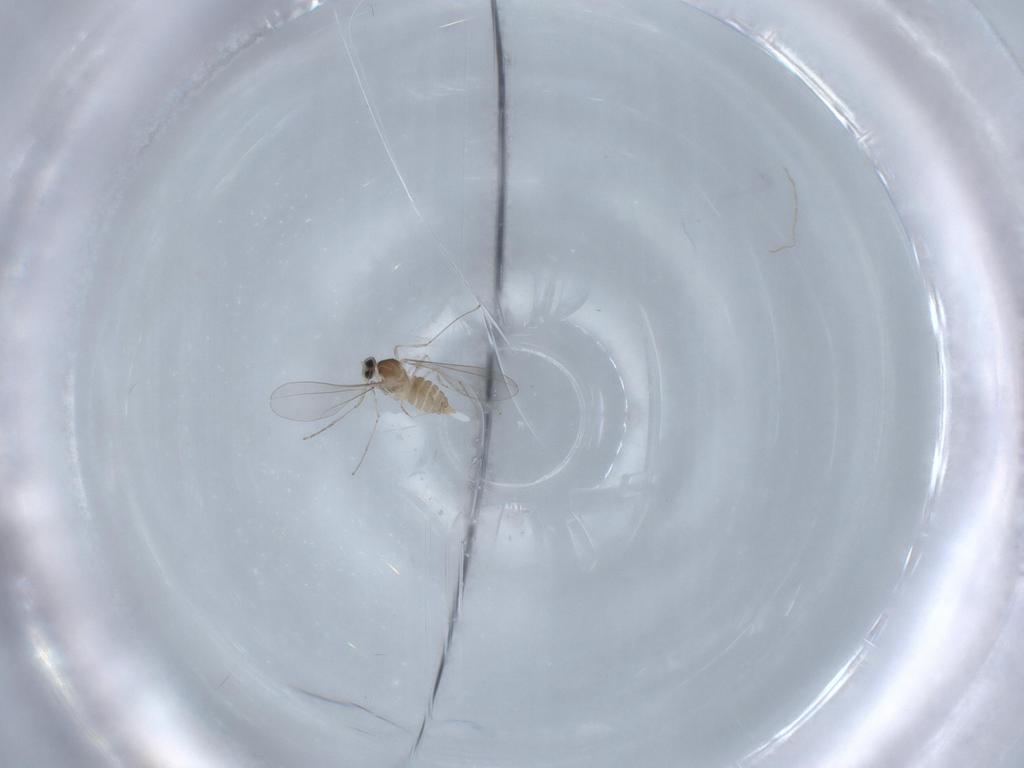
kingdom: Animalia
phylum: Arthropoda
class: Insecta
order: Diptera
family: Cecidomyiidae
